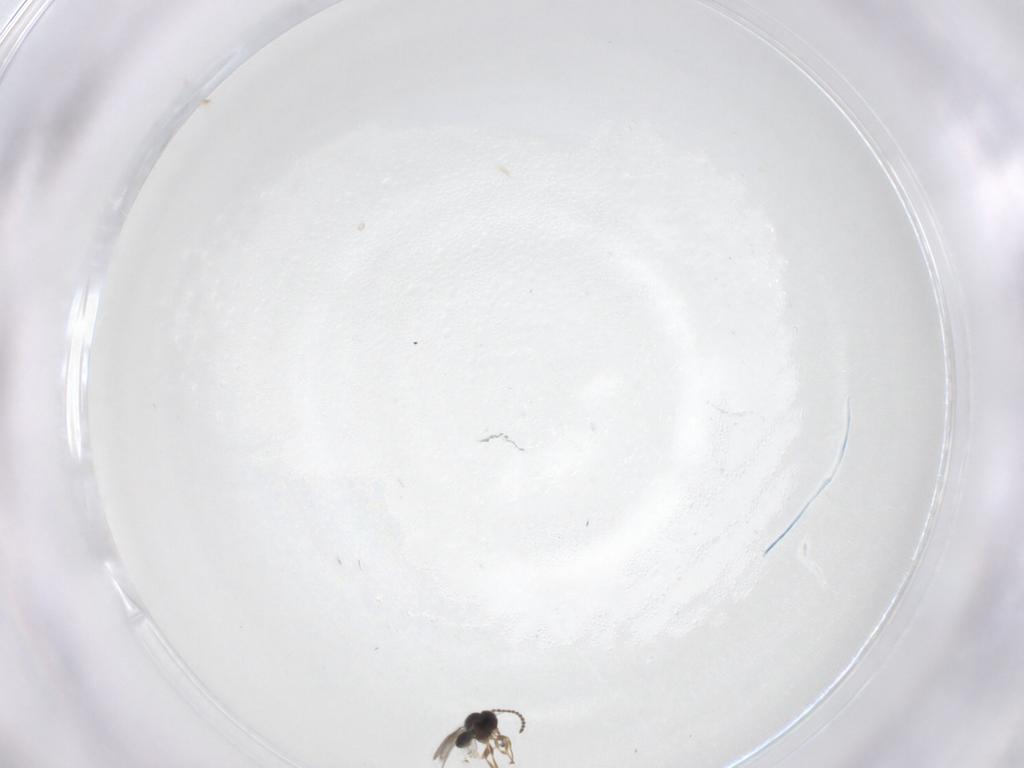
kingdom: Animalia
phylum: Arthropoda
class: Insecta
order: Hymenoptera
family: Scelionidae
